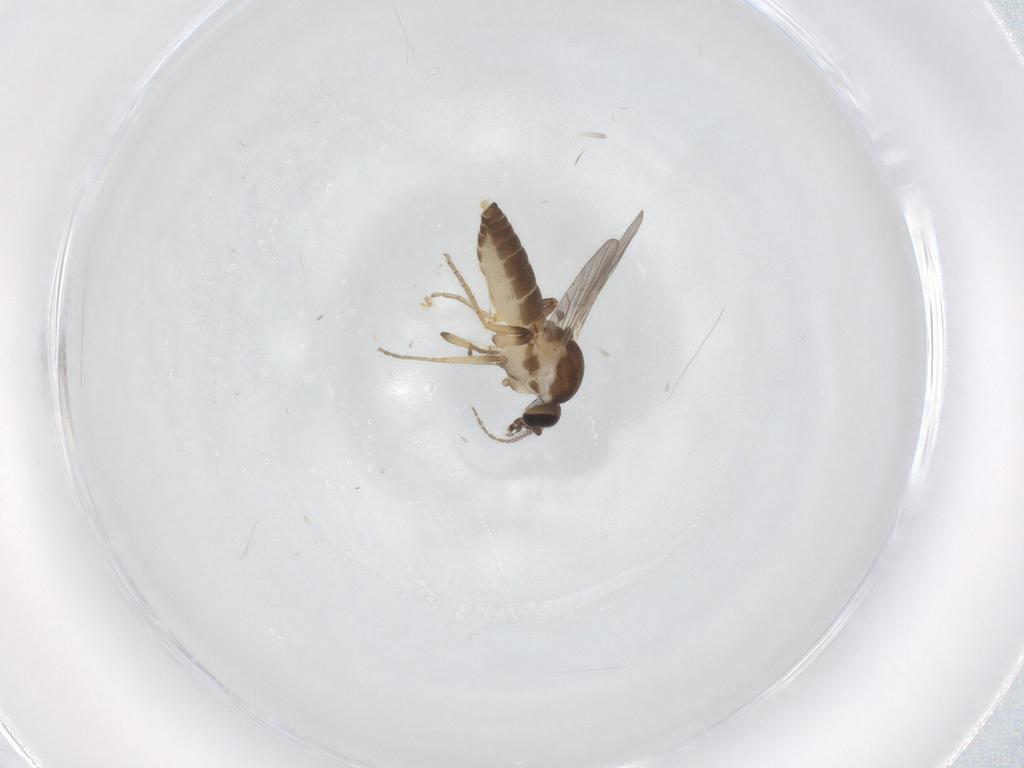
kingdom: Animalia
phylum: Arthropoda
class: Insecta
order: Diptera
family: Ceratopogonidae
